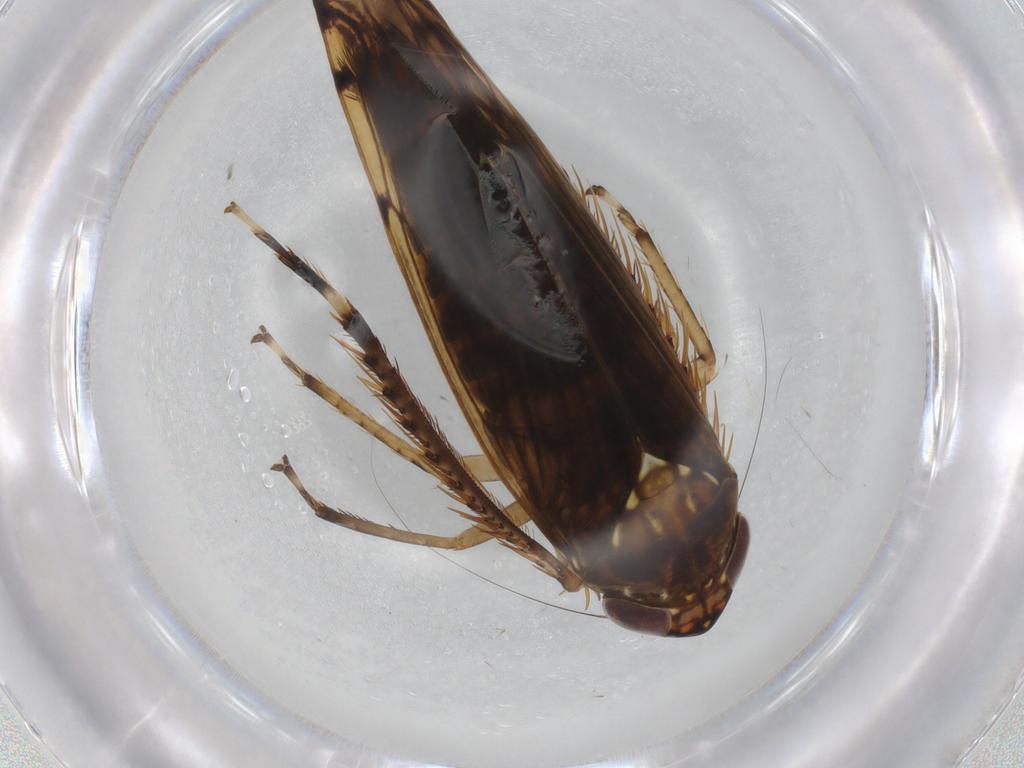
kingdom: Animalia
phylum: Arthropoda
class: Insecta
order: Hemiptera
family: Cicadellidae
